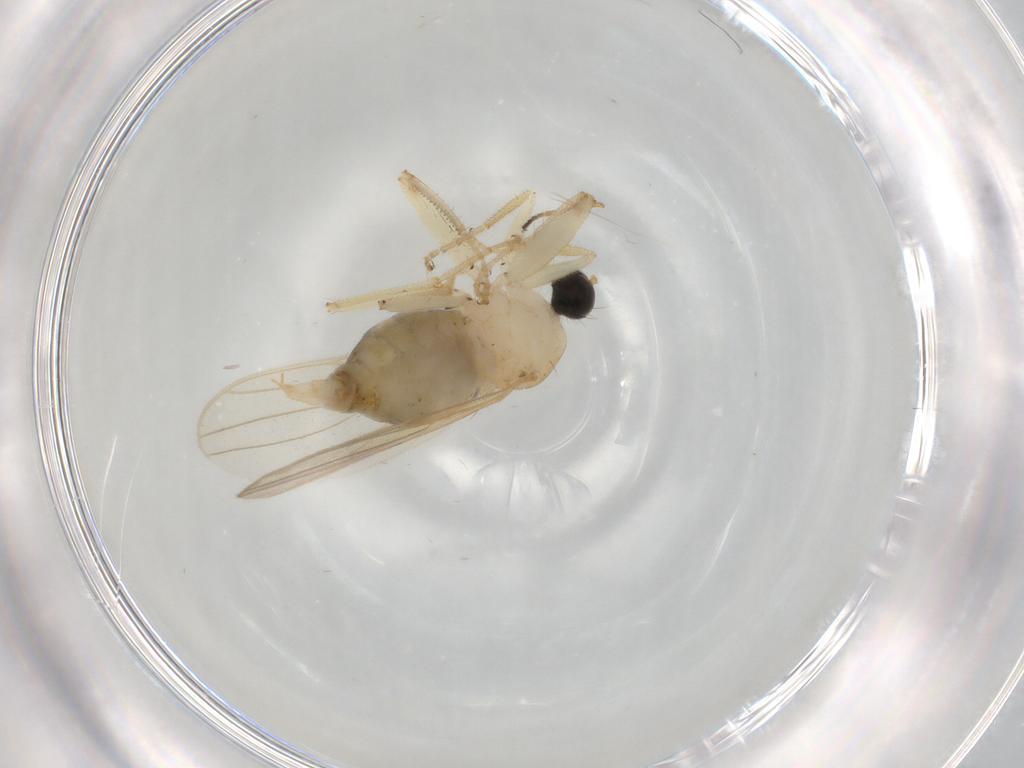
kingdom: Animalia
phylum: Arthropoda
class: Insecta
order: Diptera
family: Hybotidae
